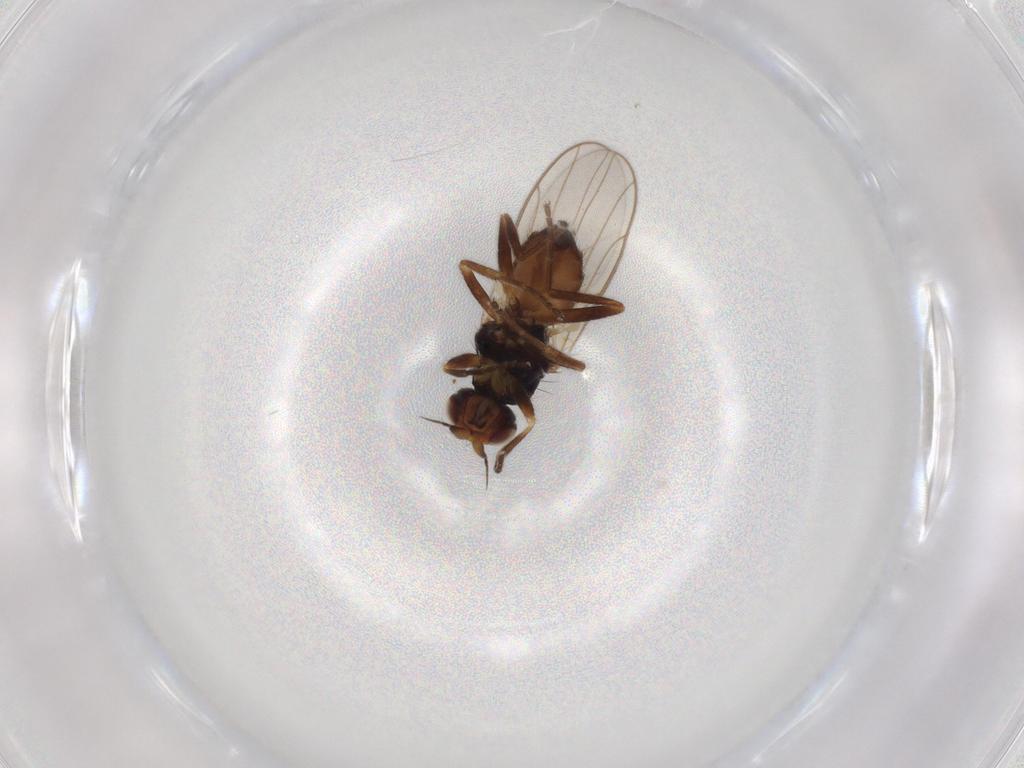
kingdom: Animalia
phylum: Arthropoda
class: Insecta
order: Diptera
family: Chloropidae
